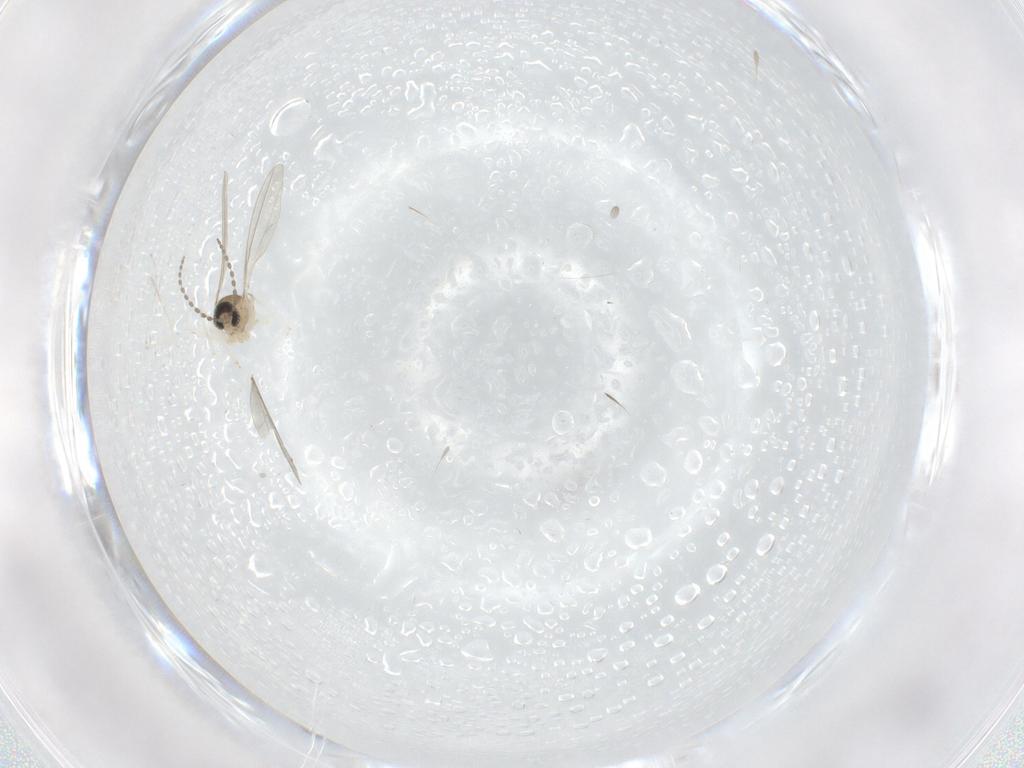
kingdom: Animalia
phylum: Arthropoda
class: Insecta
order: Diptera
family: Cecidomyiidae
